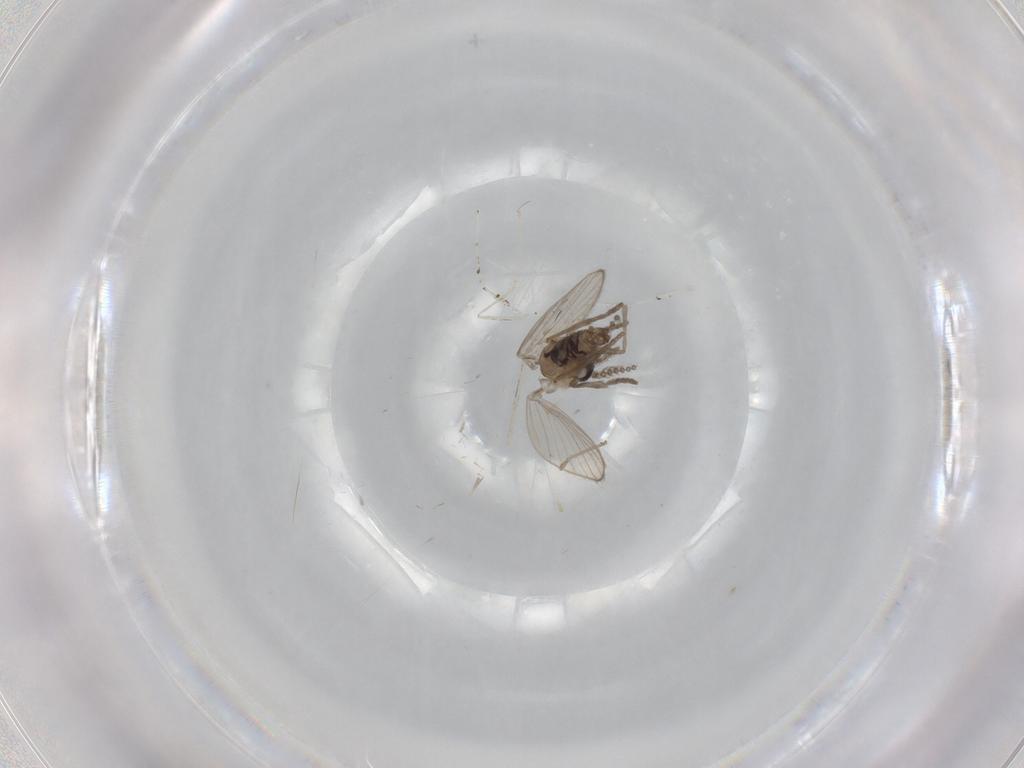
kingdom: Animalia
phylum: Arthropoda
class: Insecta
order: Diptera
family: Psychodidae
